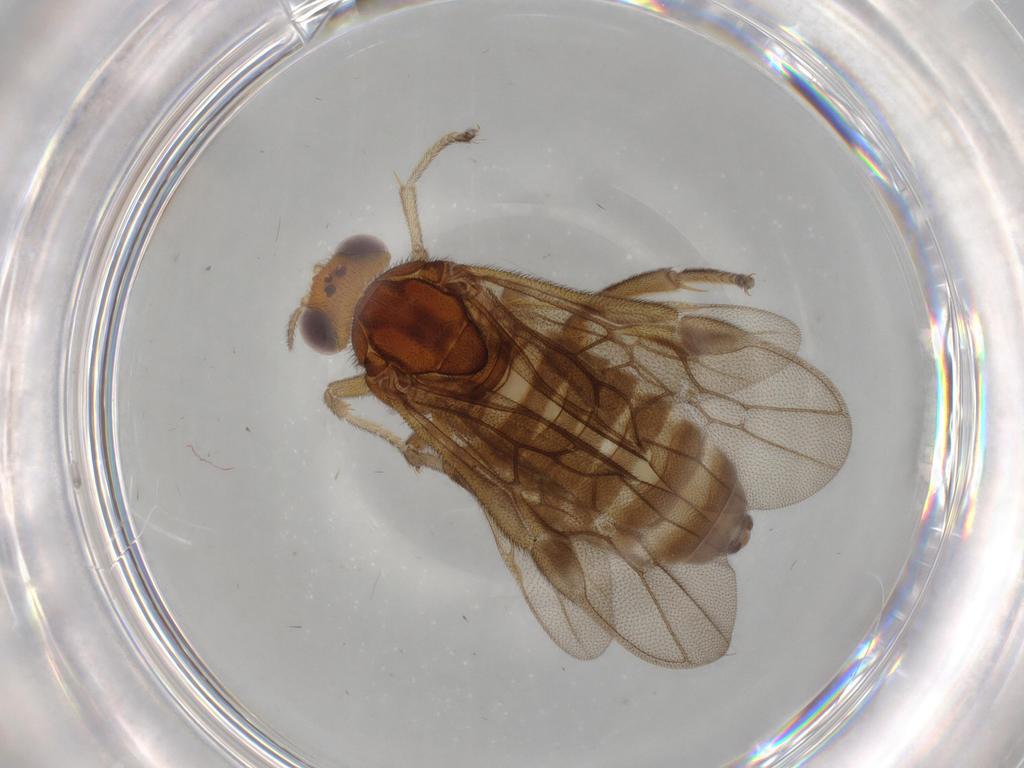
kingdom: Animalia
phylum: Arthropoda
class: Insecta
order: Hymenoptera
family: Pergidae
